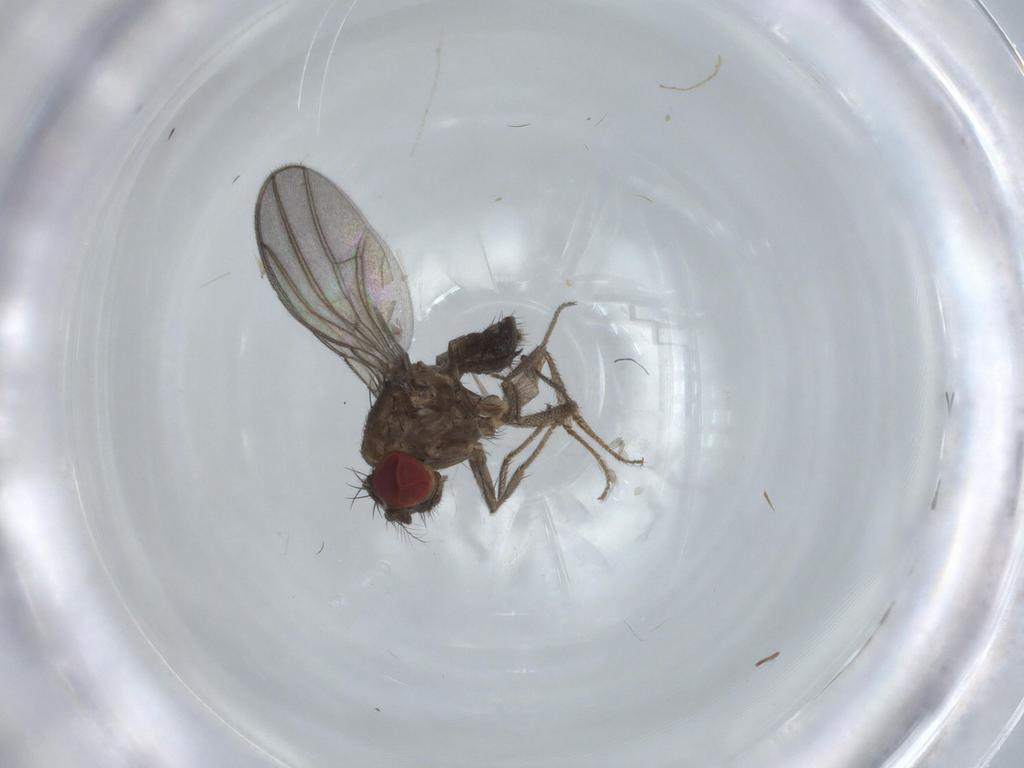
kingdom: Animalia
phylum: Arthropoda
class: Insecta
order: Diptera
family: Drosophilidae
